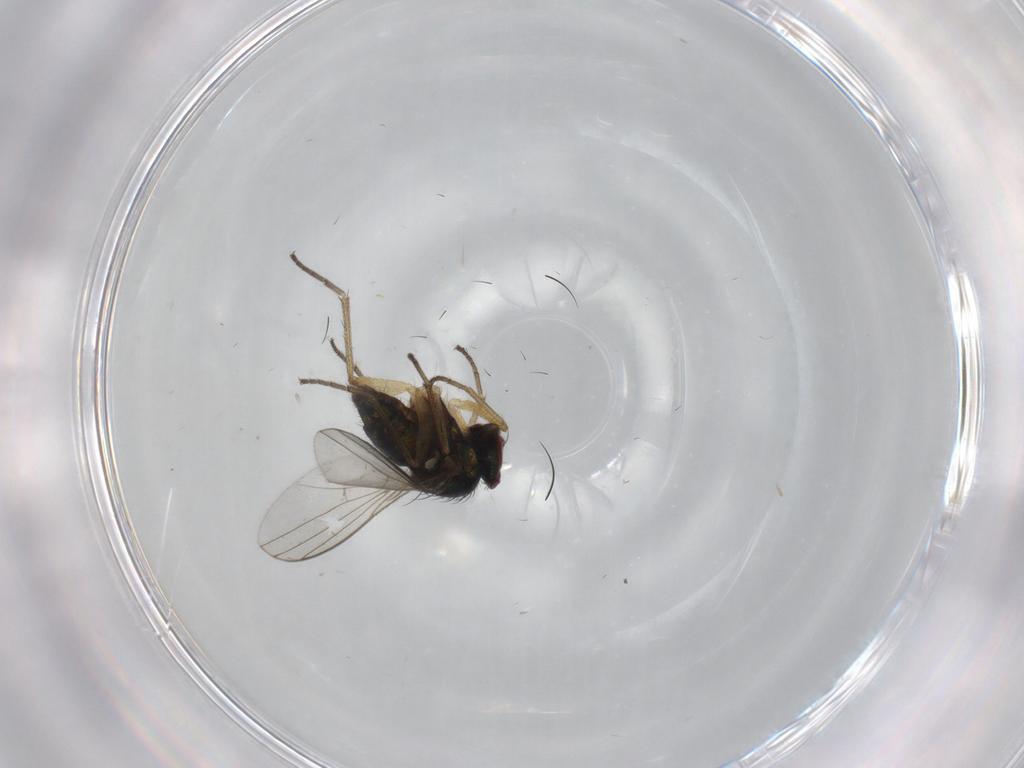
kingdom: Animalia
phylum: Arthropoda
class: Insecta
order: Diptera
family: Dolichopodidae
